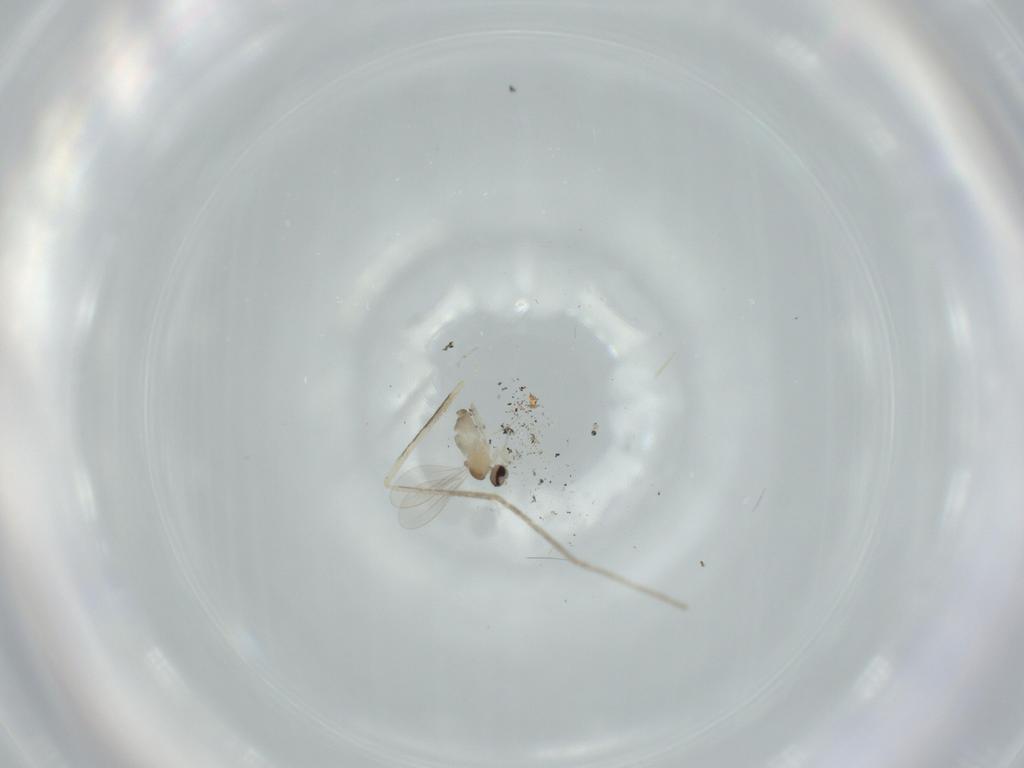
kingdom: Animalia
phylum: Arthropoda
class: Insecta
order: Diptera
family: Cecidomyiidae
